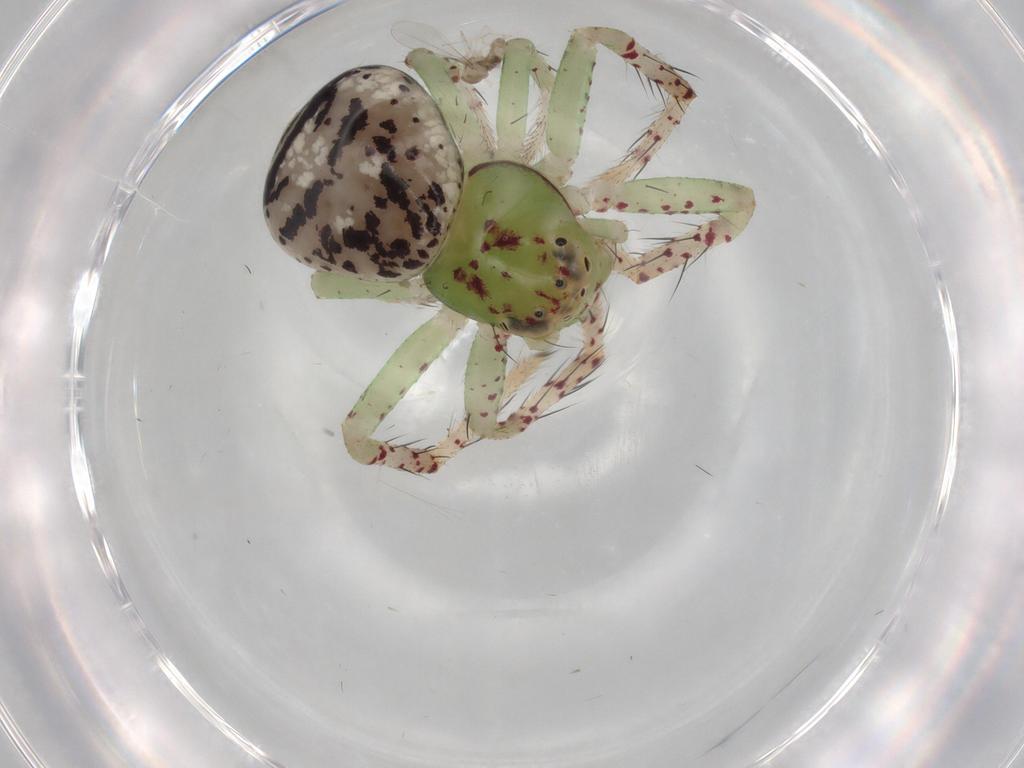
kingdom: Animalia
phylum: Arthropoda
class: Arachnida
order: Araneae
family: Thomisidae
